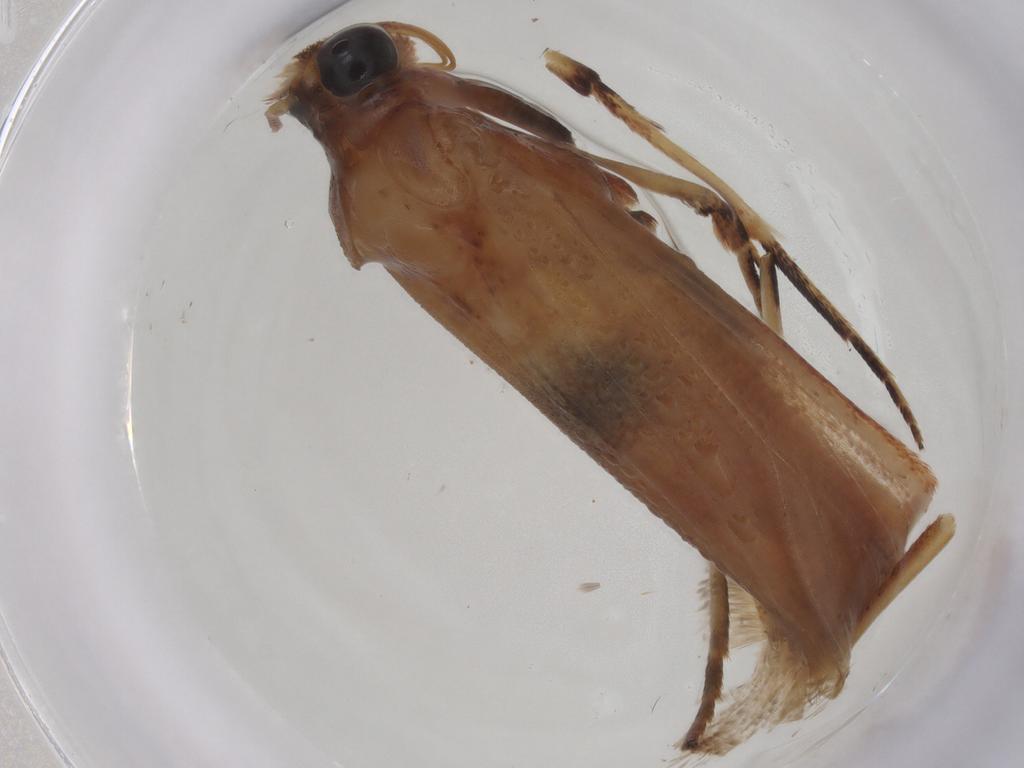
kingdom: Animalia
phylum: Arthropoda
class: Insecta
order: Lepidoptera
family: Pyralidae
